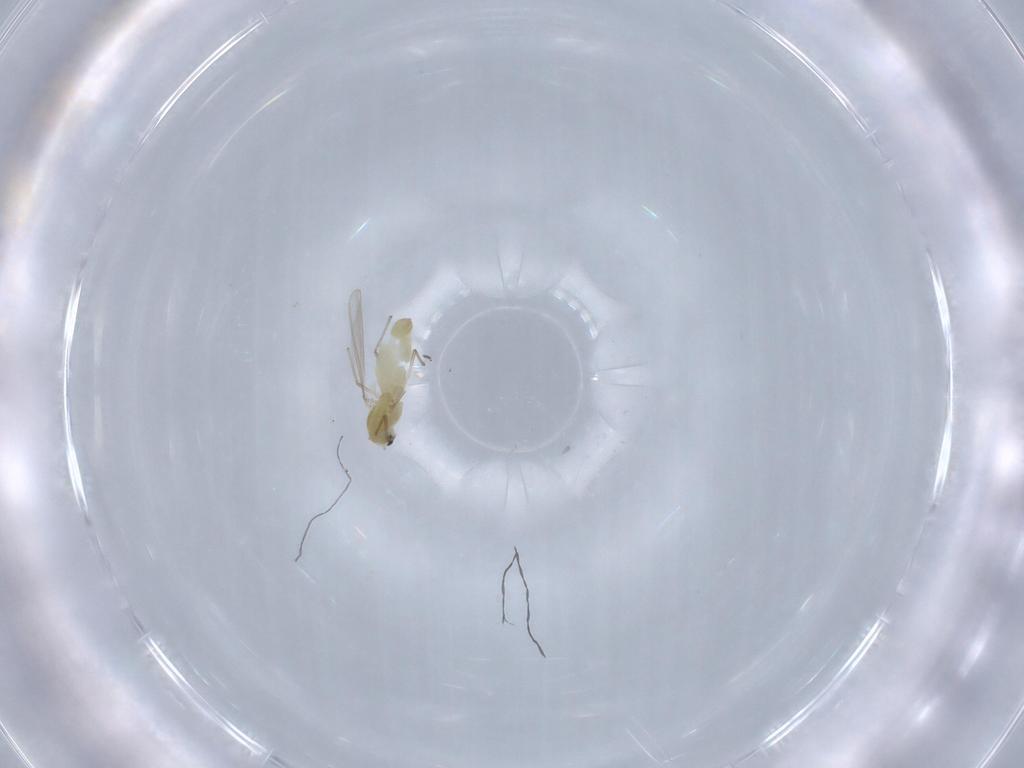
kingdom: Animalia
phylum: Arthropoda
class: Insecta
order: Diptera
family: Chironomidae
